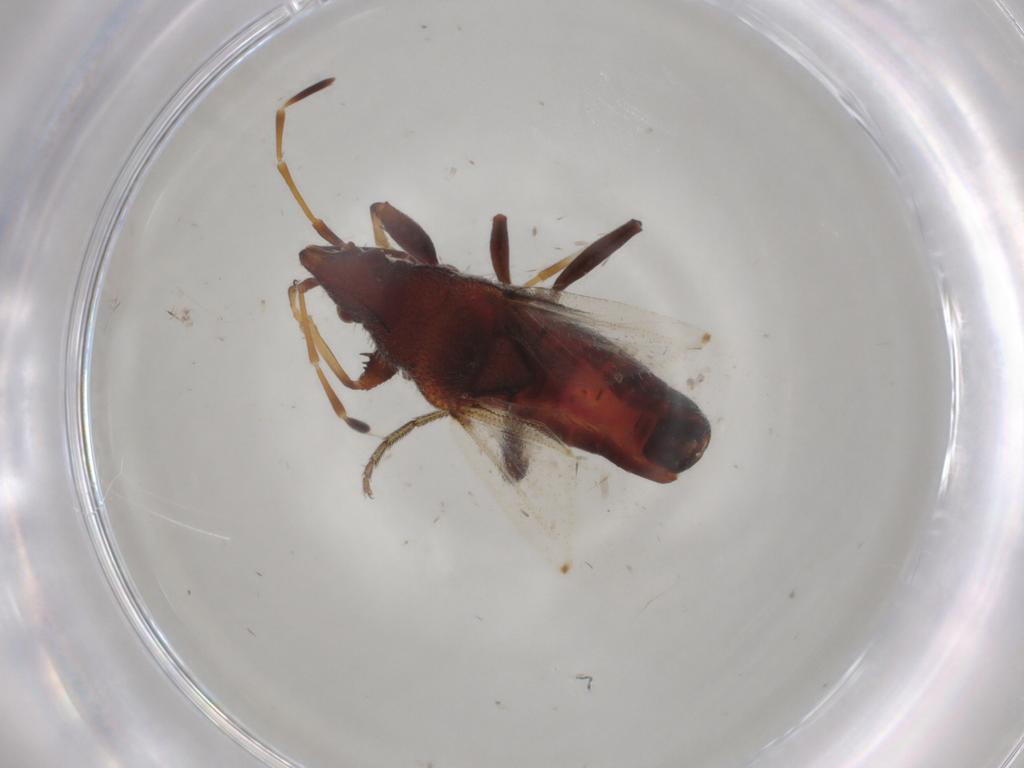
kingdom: Animalia
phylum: Arthropoda
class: Insecta
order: Hemiptera
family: Oxycarenidae
